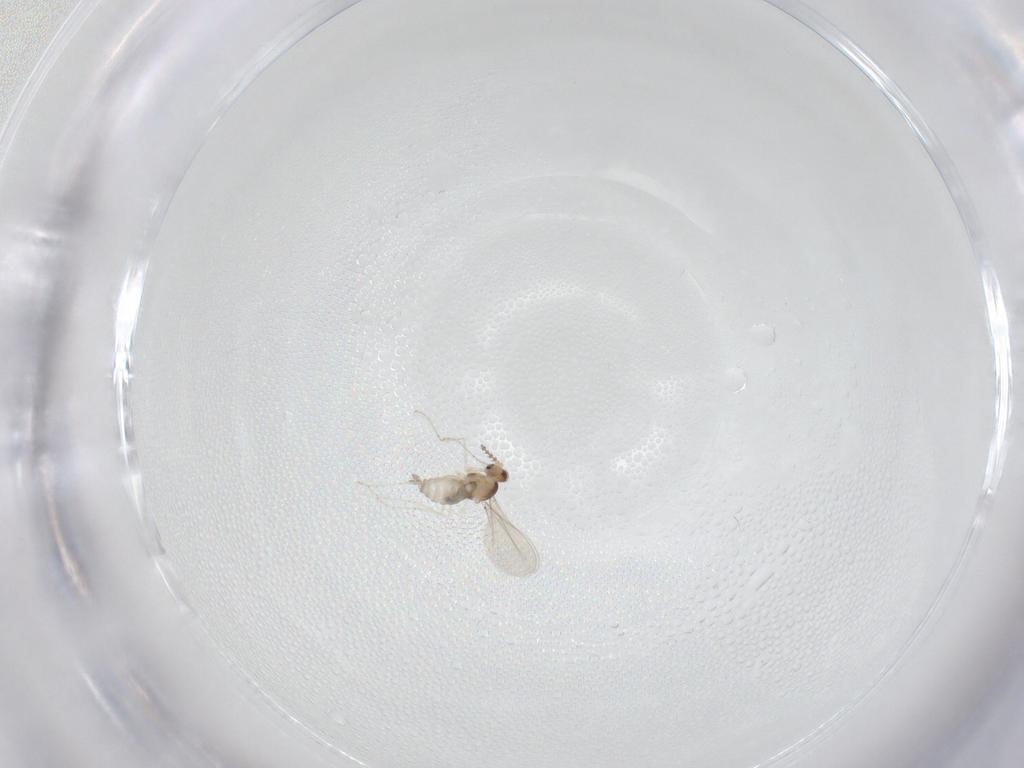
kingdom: Animalia
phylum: Arthropoda
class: Insecta
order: Diptera
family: Cecidomyiidae
